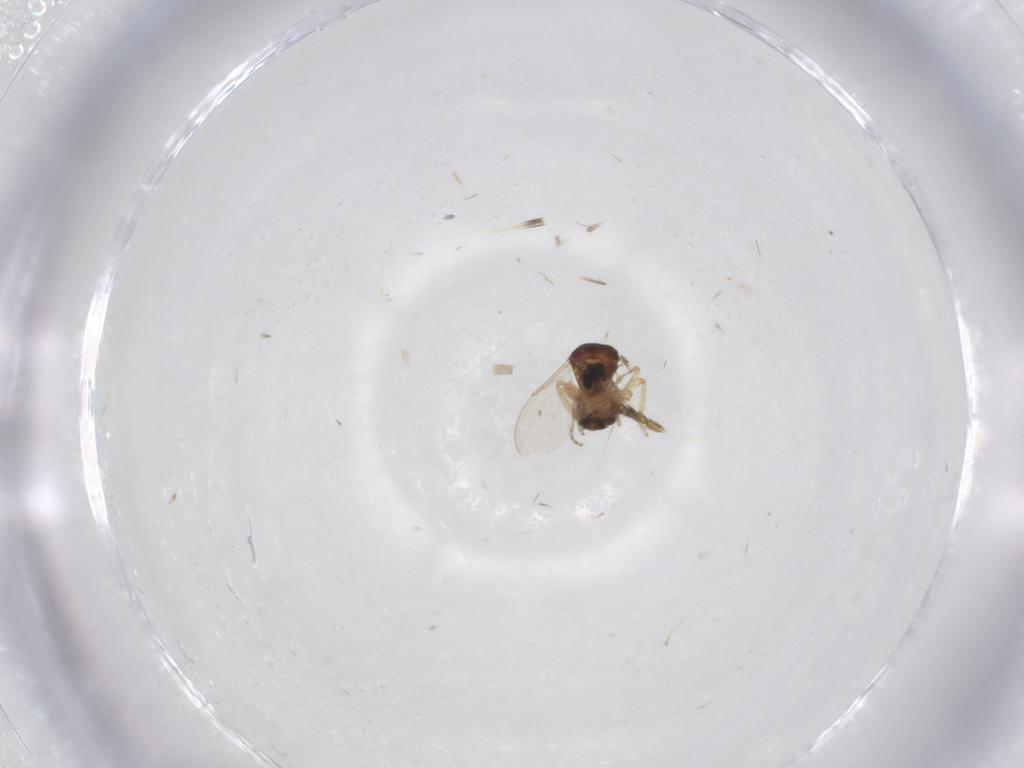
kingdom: Animalia
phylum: Arthropoda
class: Insecta
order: Diptera
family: Ceratopogonidae
